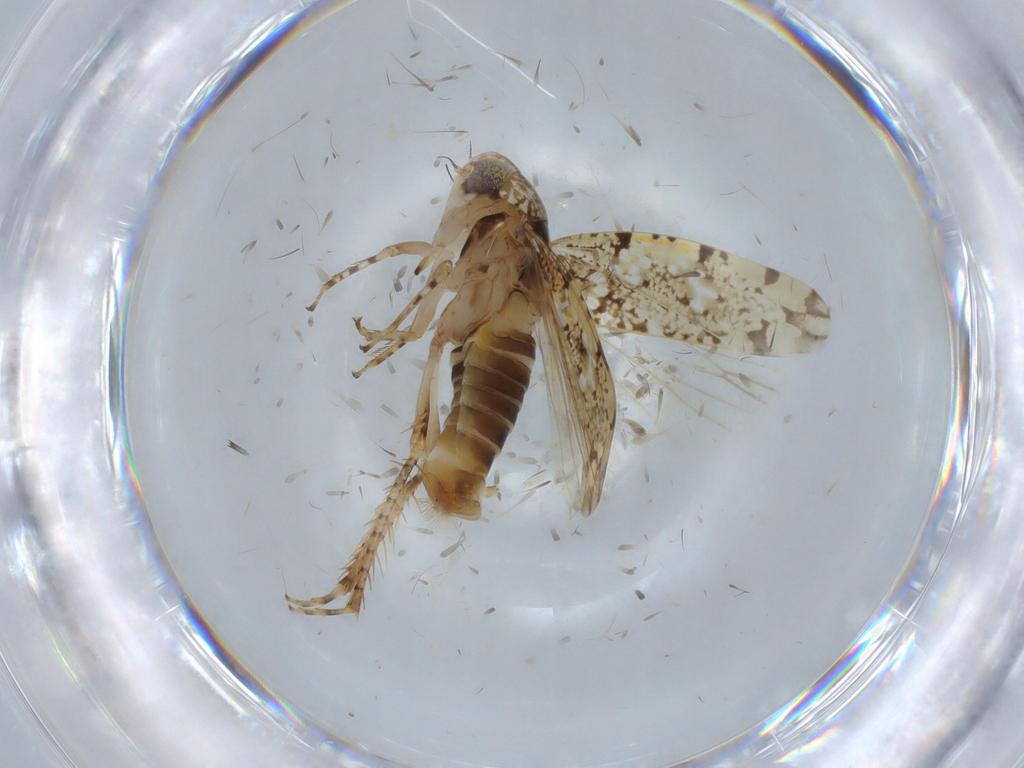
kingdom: Animalia
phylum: Arthropoda
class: Insecta
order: Hemiptera
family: Cicadellidae
